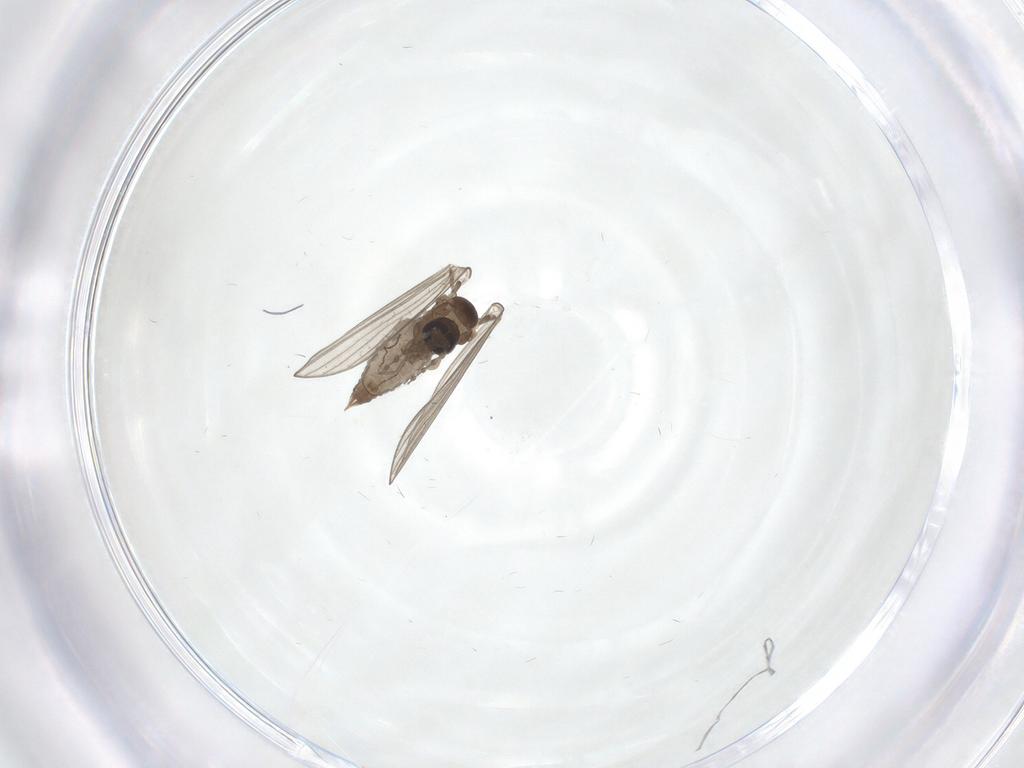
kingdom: Animalia
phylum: Arthropoda
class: Insecta
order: Diptera
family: Psychodidae
